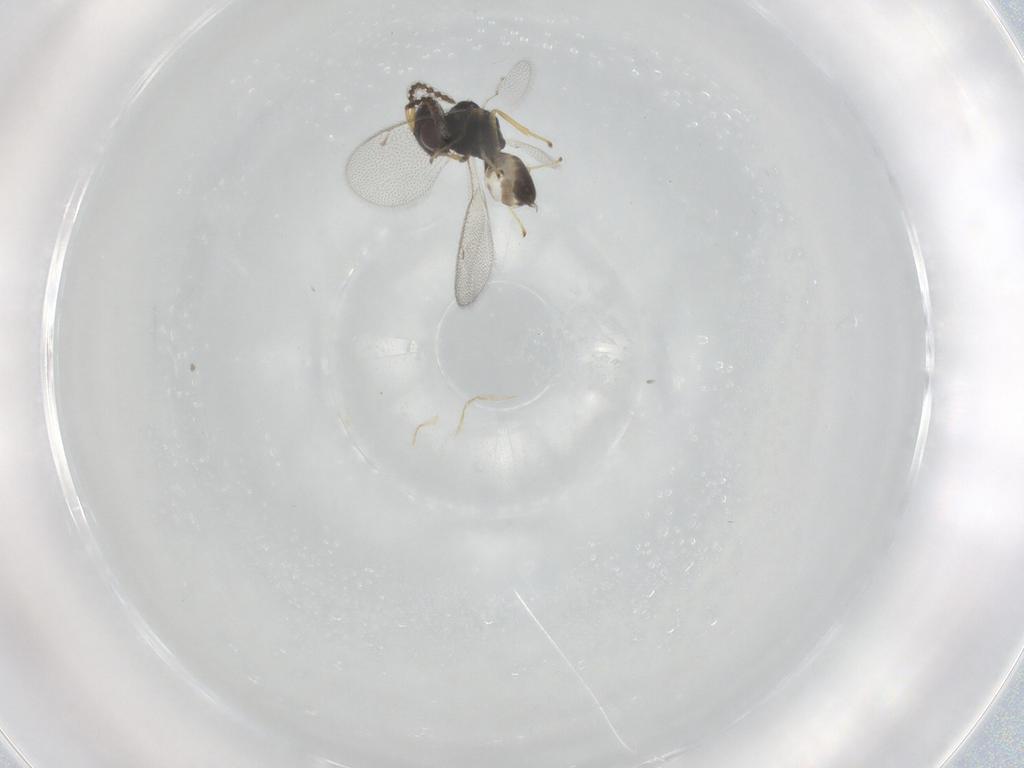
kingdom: Animalia
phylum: Arthropoda
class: Insecta
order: Hymenoptera
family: Pteromalidae
